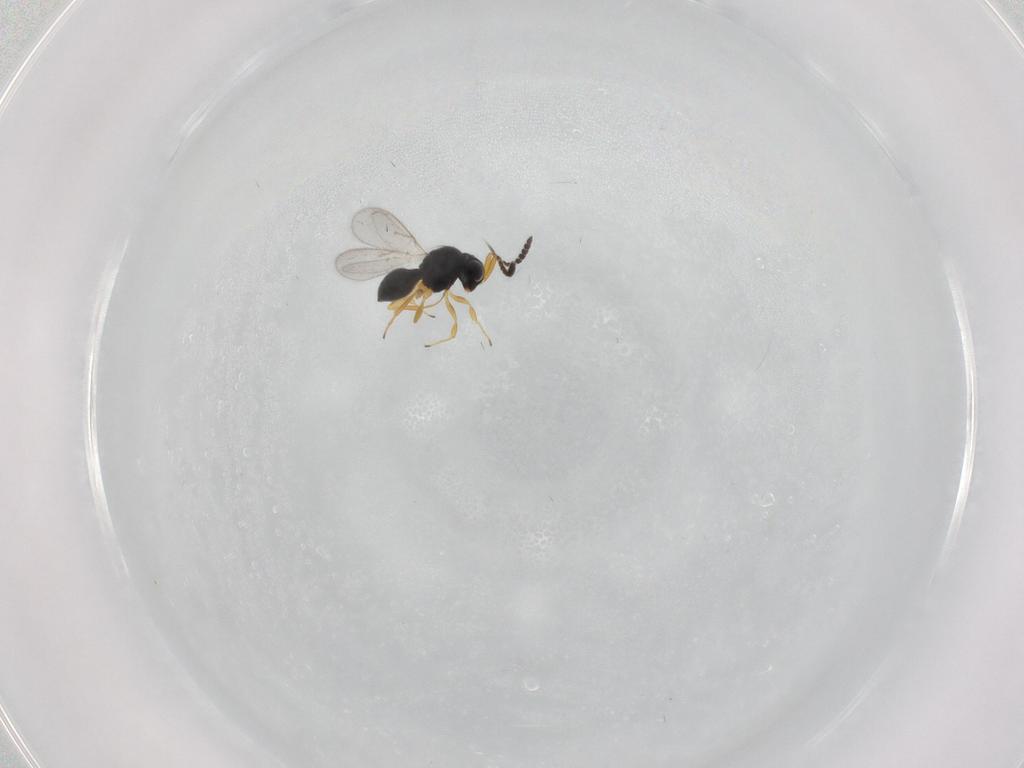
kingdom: Animalia
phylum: Arthropoda
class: Insecta
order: Hymenoptera
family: Scelionidae
